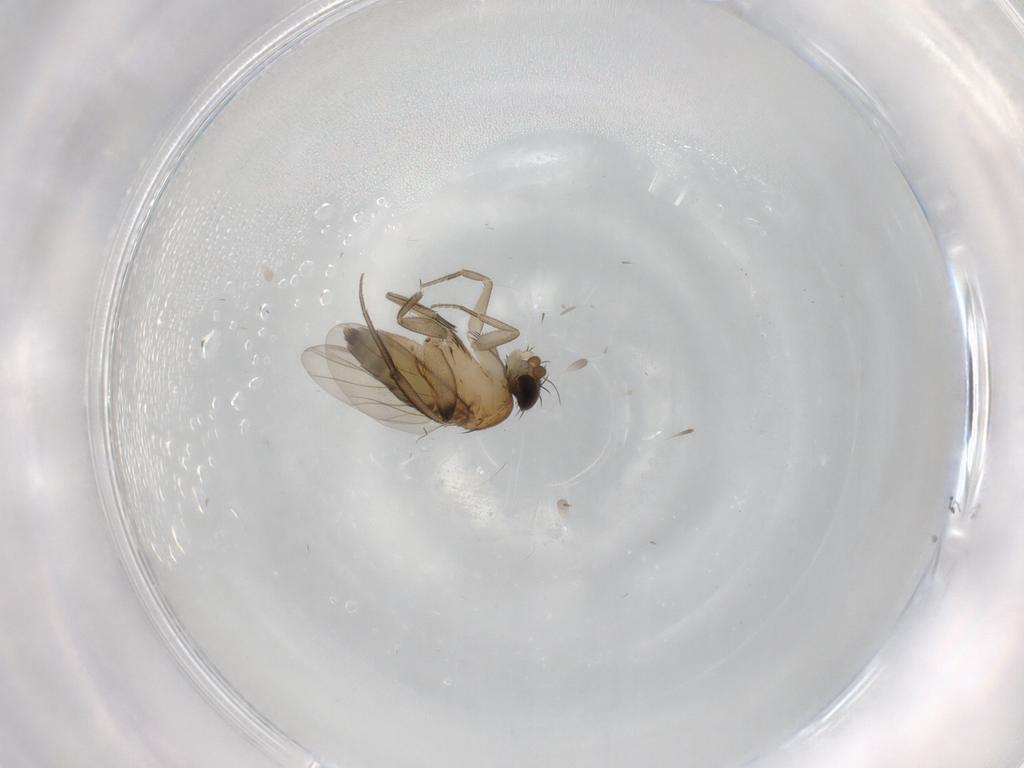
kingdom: Animalia
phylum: Arthropoda
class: Insecta
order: Diptera
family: Phoridae
